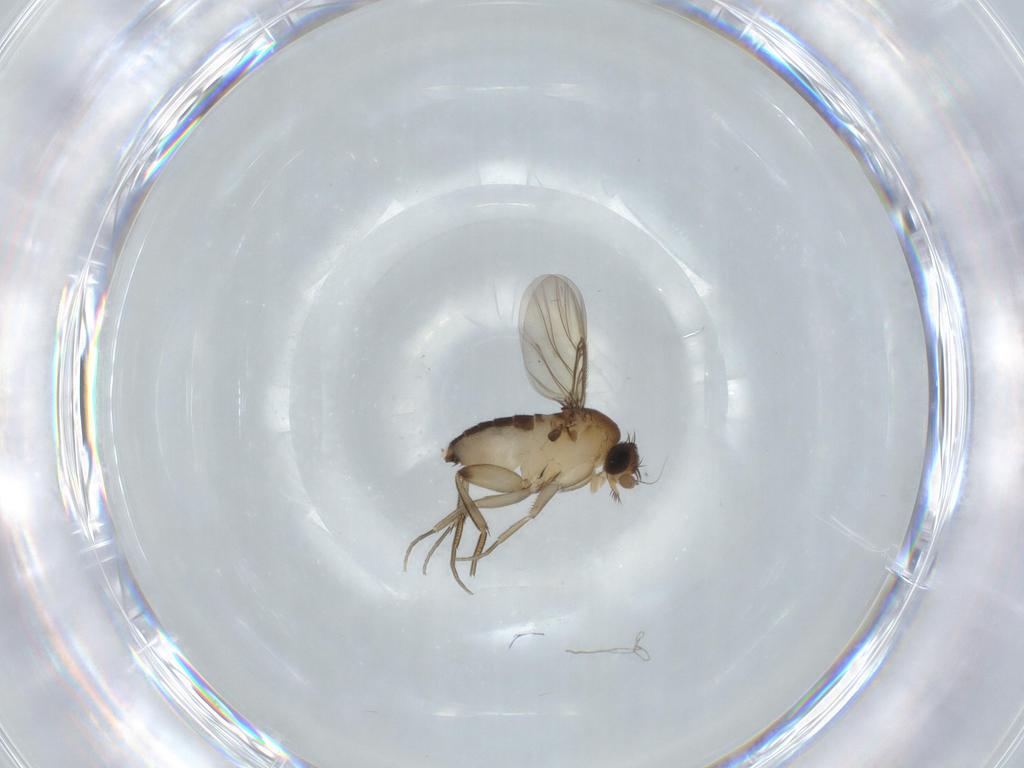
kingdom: Animalia
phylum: Arthropoda
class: Insecta
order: Diptera
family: Phoridae
